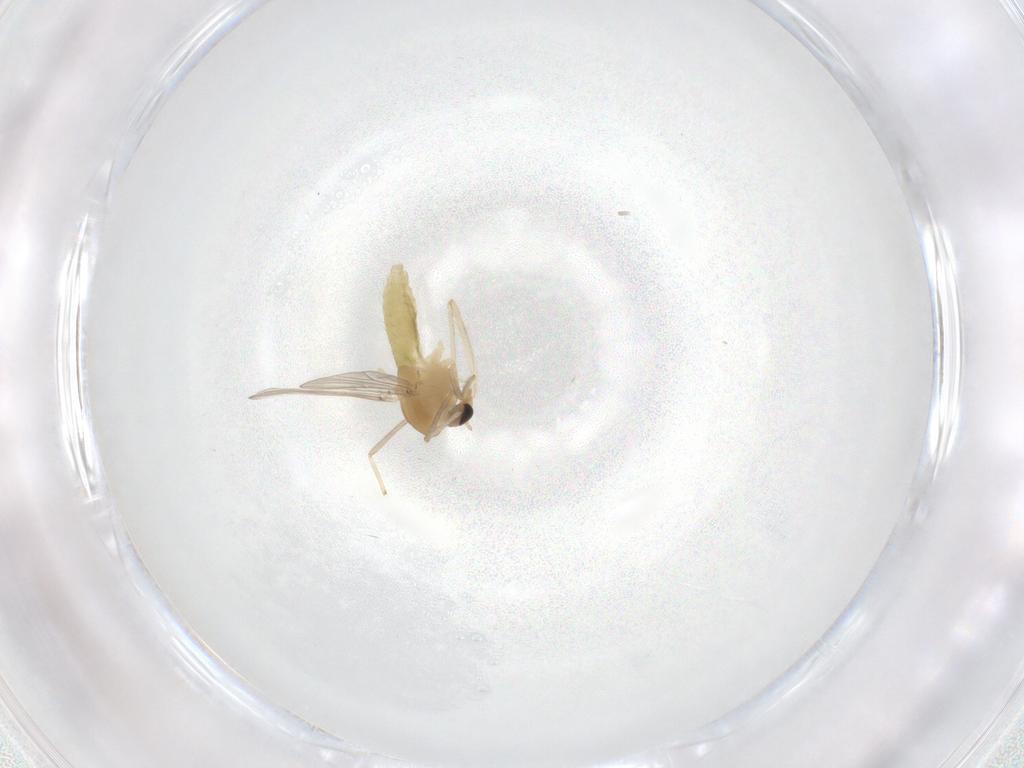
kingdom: Animalia
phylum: Arthropoda
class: Insecta
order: Diptera
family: Chironomidae
